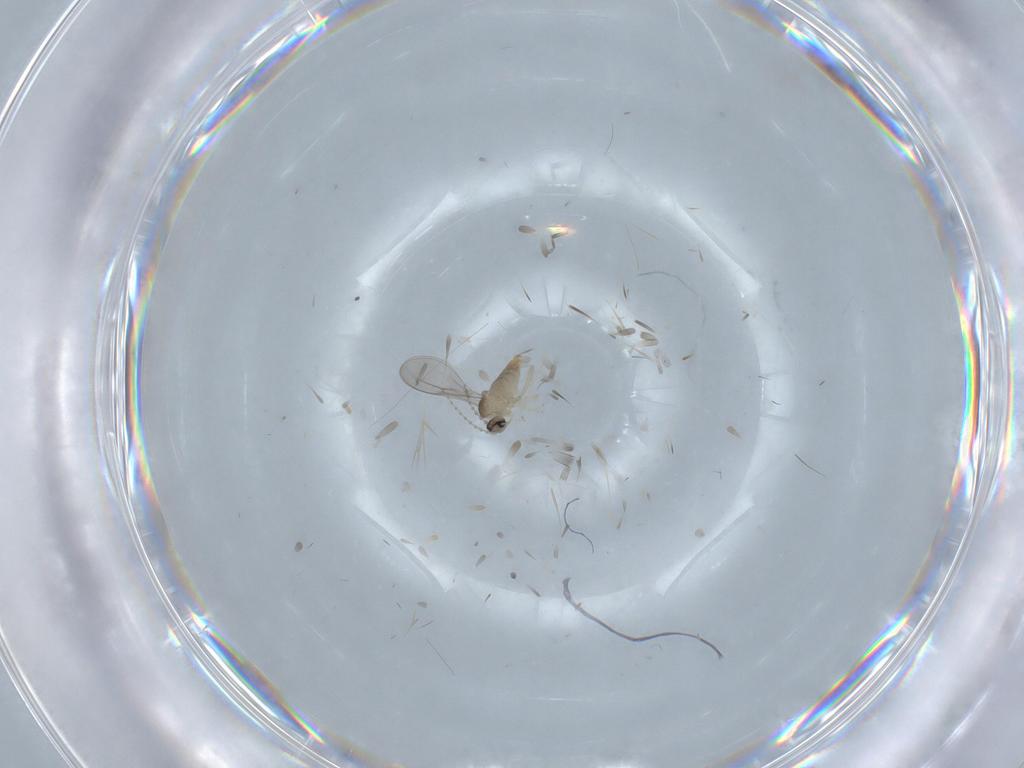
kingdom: Animalia
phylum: Arthropoda
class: Insecta
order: Diptera
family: Cecidomyiidae
